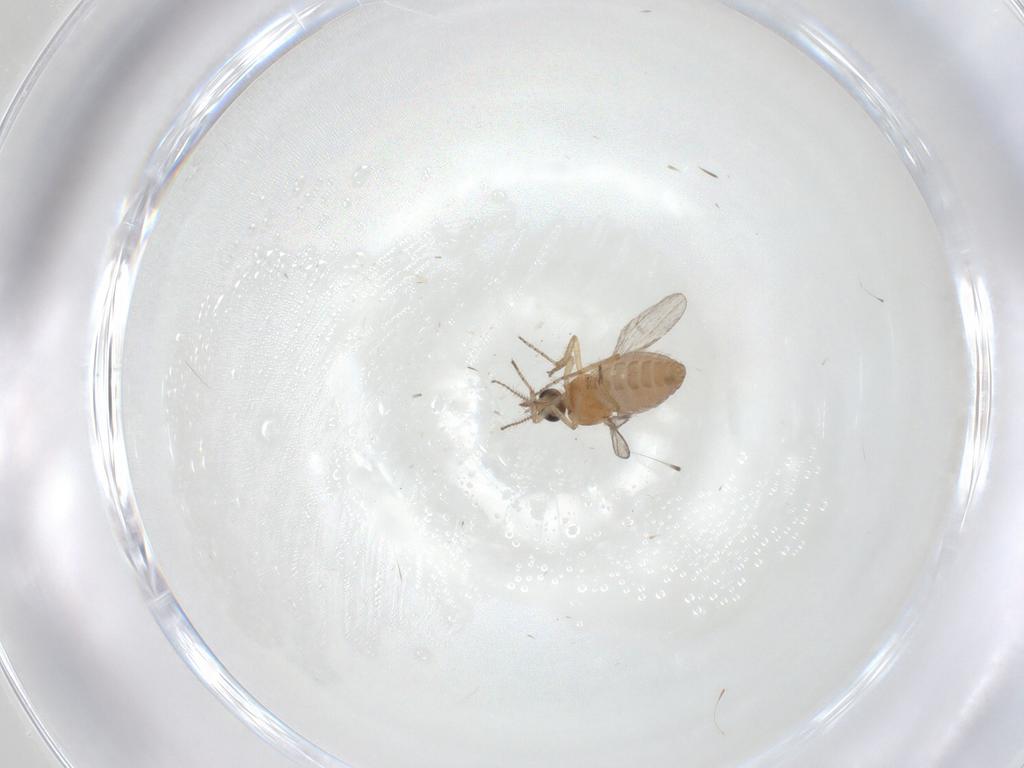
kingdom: Animalia
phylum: Arthropoda
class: Insecta
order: Diptera
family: Ceratopogonidae
